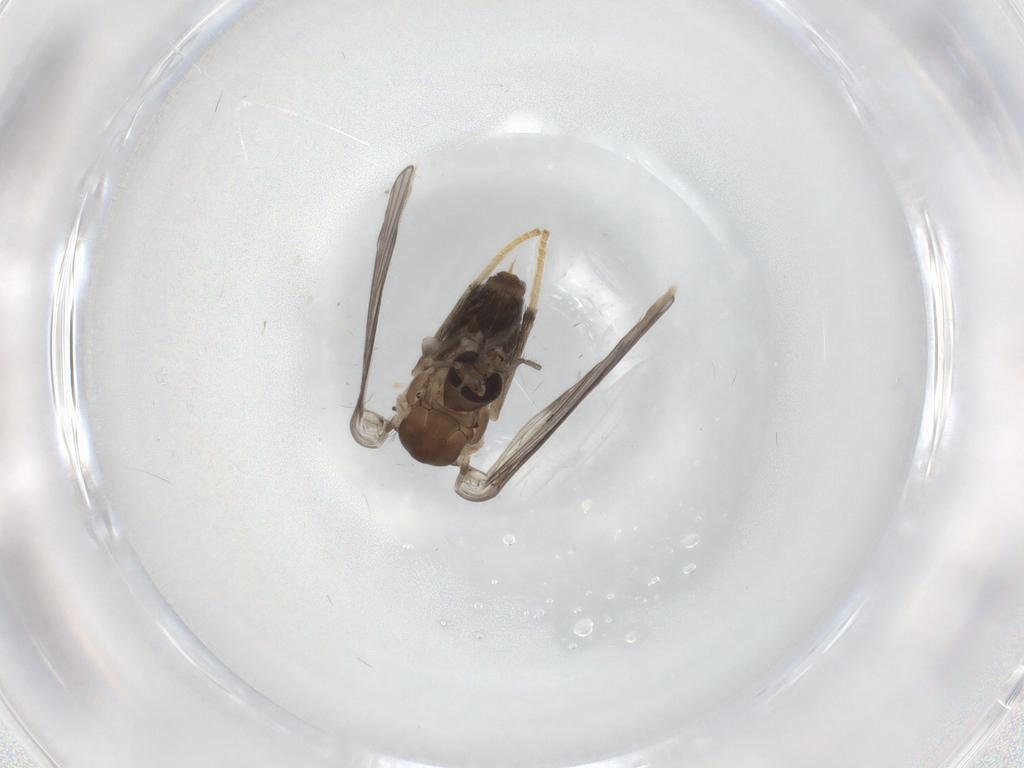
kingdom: Animalia
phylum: Arthropoda
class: Insecta
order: Diptera
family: Psychodidae
